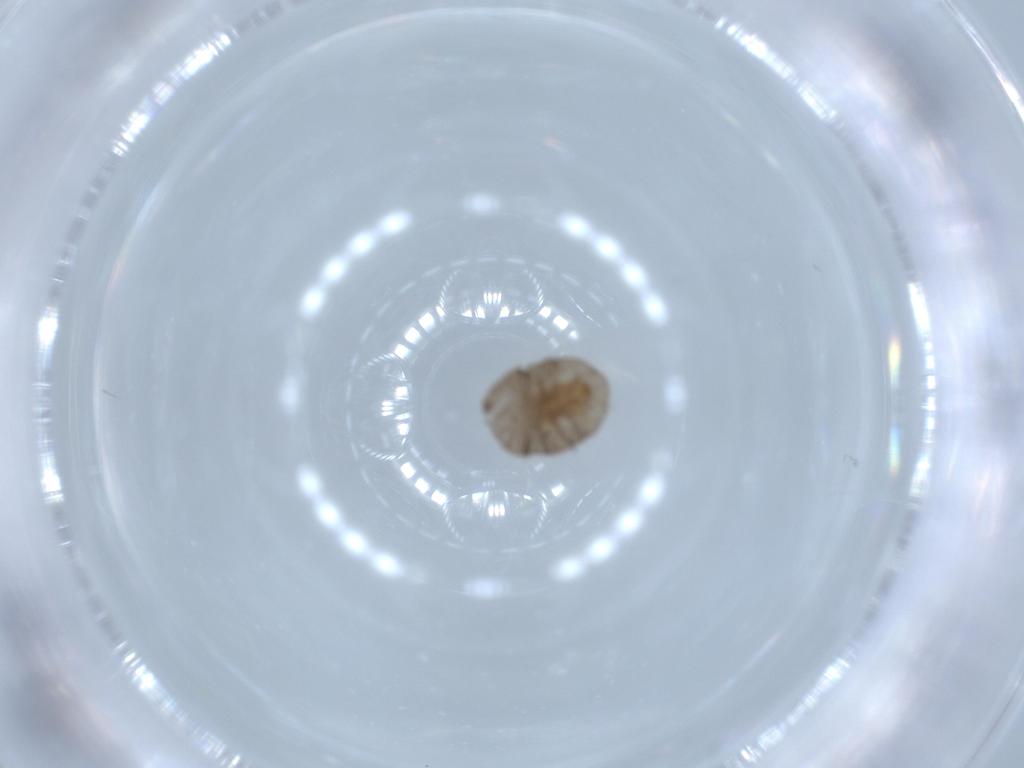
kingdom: Animalia
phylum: Arthropoda
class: Insecta
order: Coleoptera
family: Corylophidae
